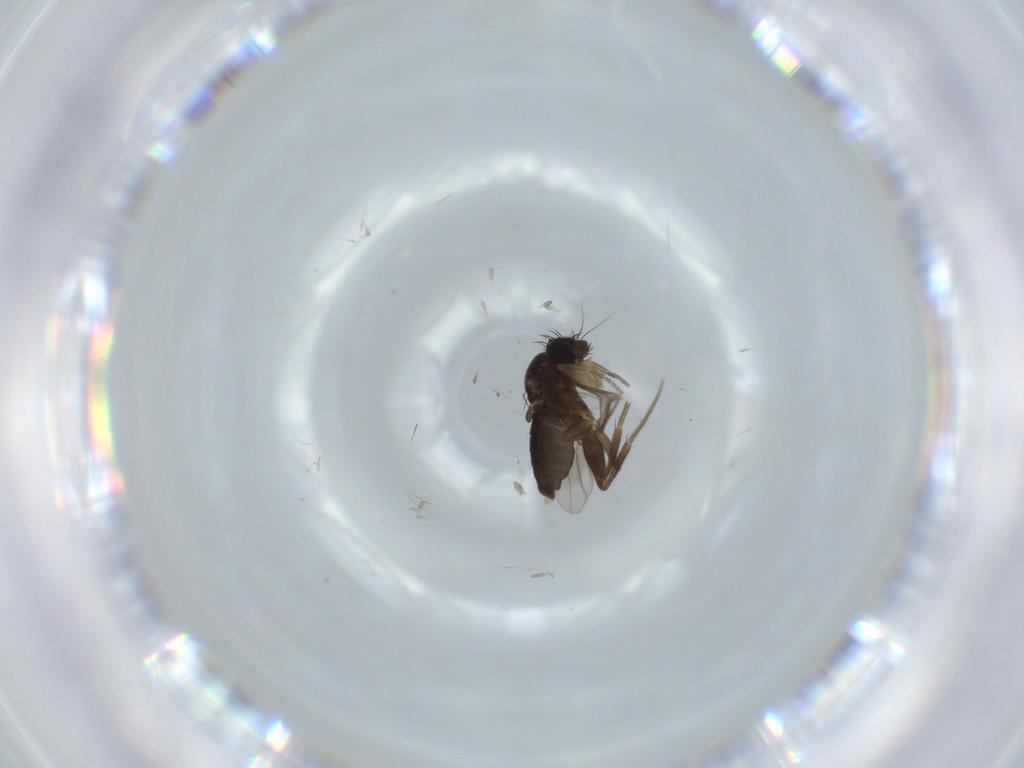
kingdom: Animalia
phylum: Arthropoda
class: Insecta
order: Diptera
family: Phoridae
